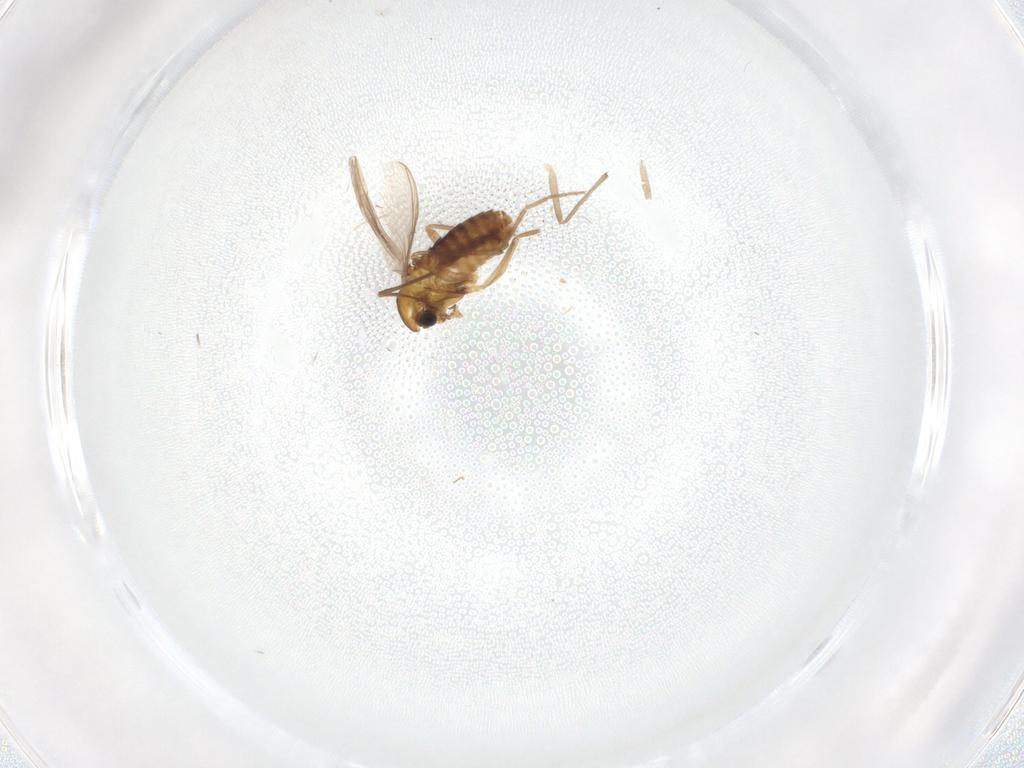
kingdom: Animalia
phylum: Arthropoda
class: Insecta
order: Diptera
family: Chironomidae
